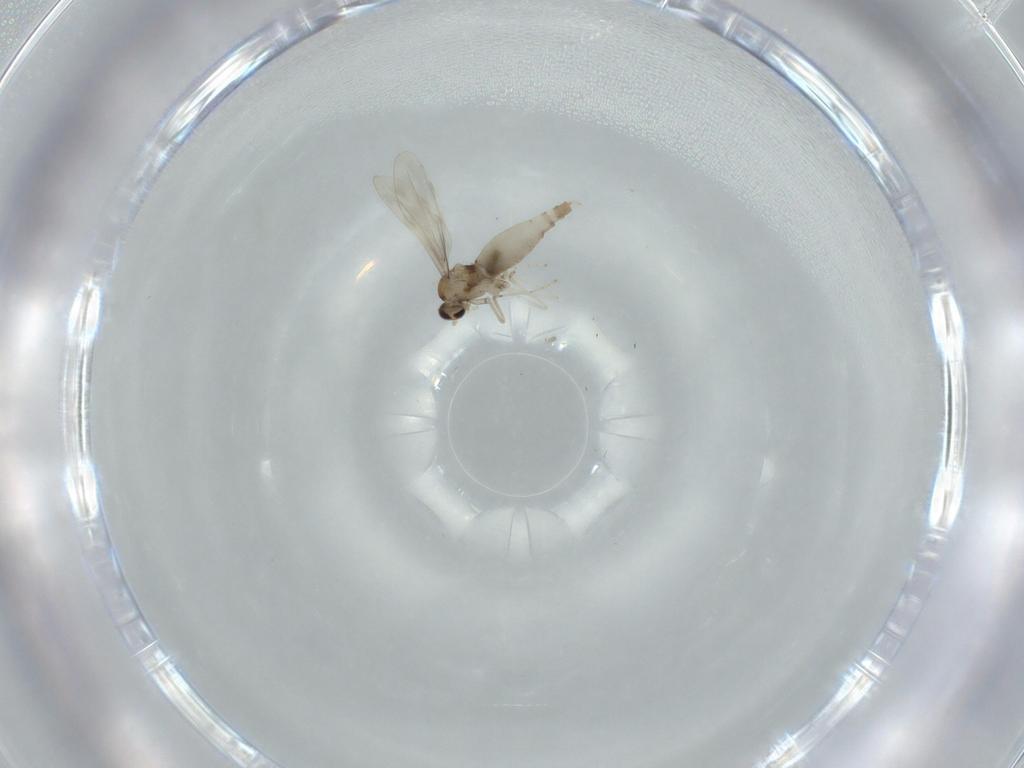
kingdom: Animalia
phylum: Arthropoda
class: Insecta
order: Diptera
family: Cecidomyiidae
